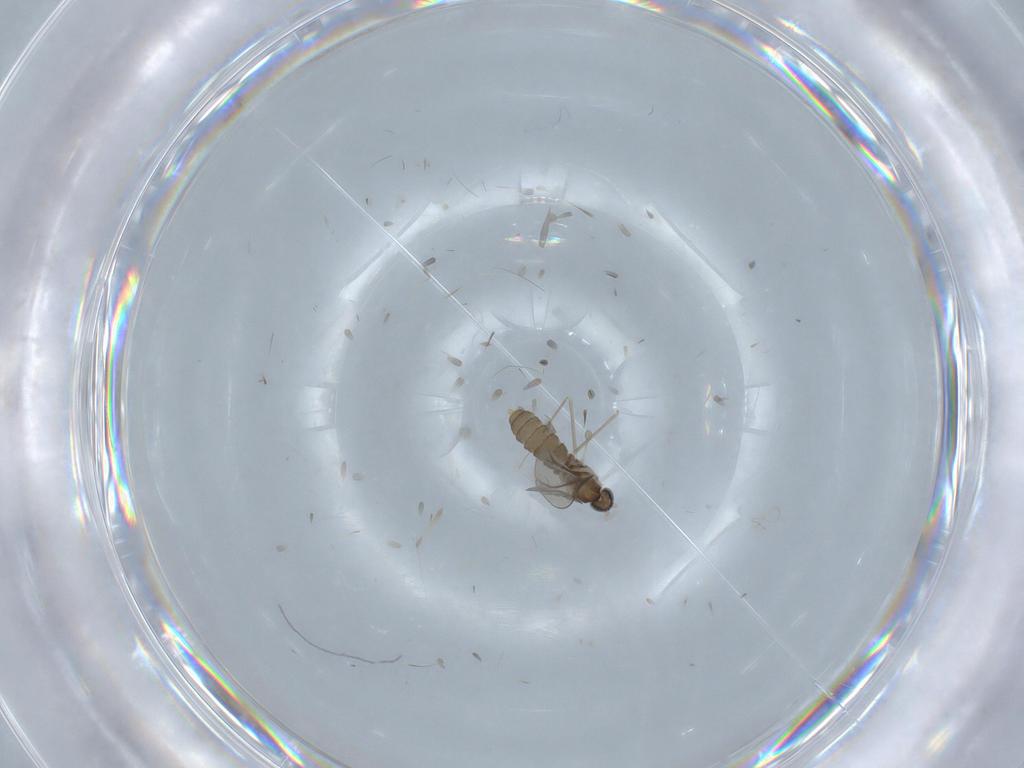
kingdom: Animalia
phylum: Arthropoda
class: Insecta
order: Diptera
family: Cecidomyiidae
